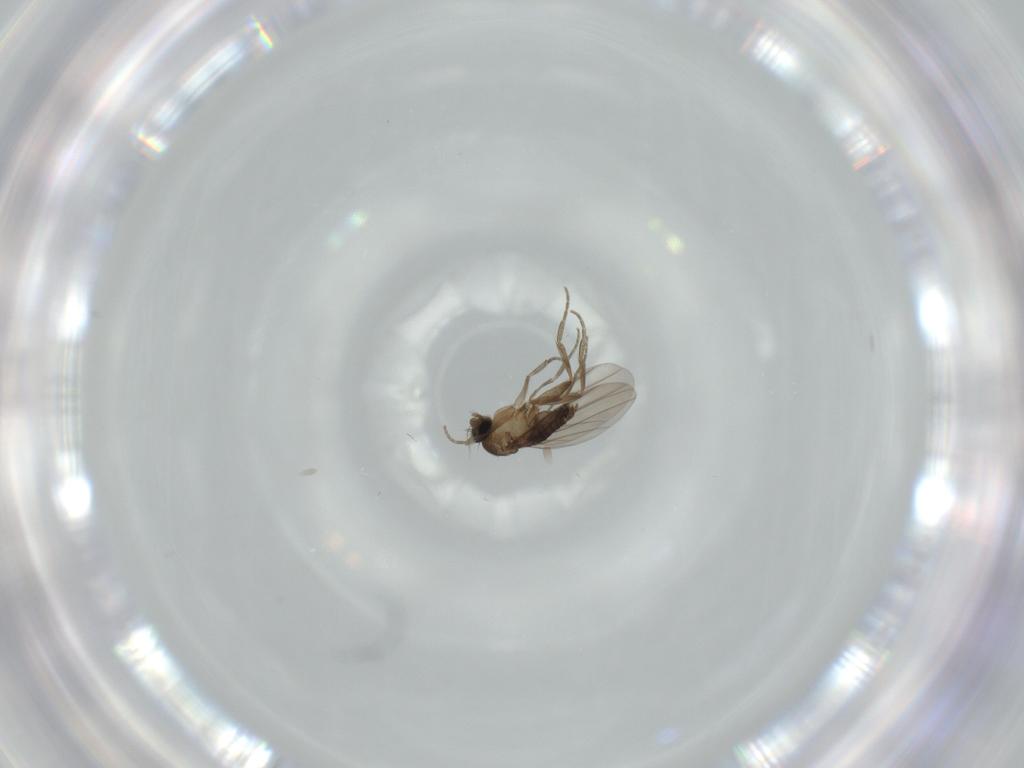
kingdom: Animalia
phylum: Arthropoda
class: Insecta
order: Diptera
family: Phoridae
